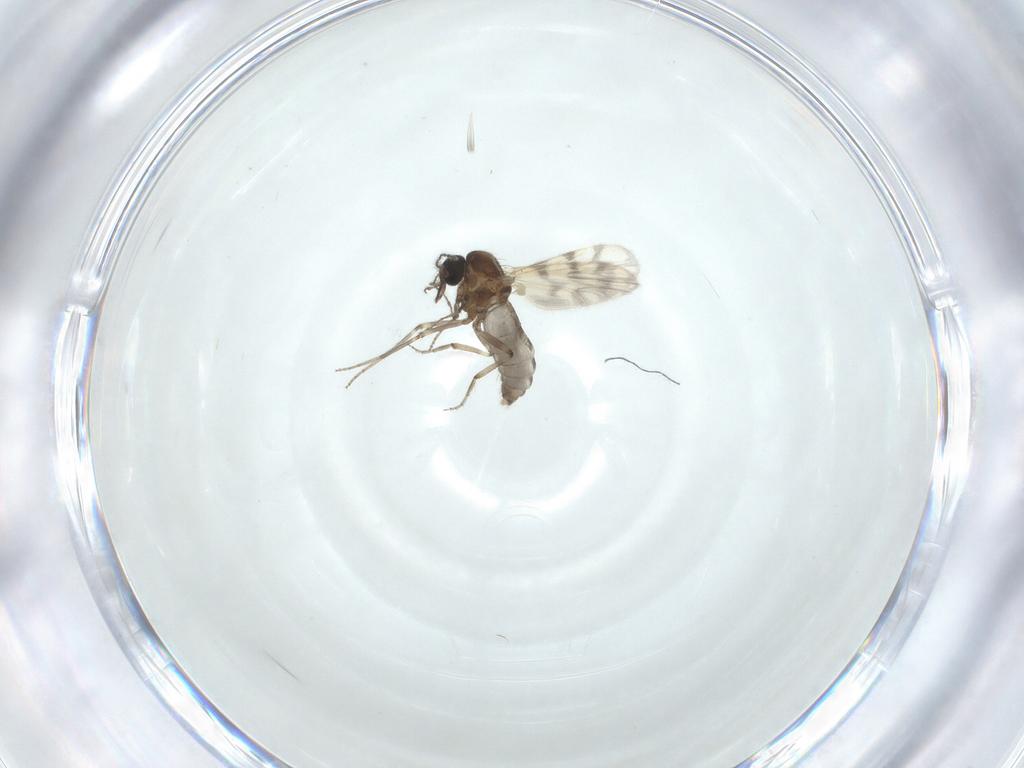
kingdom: Animalia
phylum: Arthropoda
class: Insecta
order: Diptera
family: Ceratopogonidae
